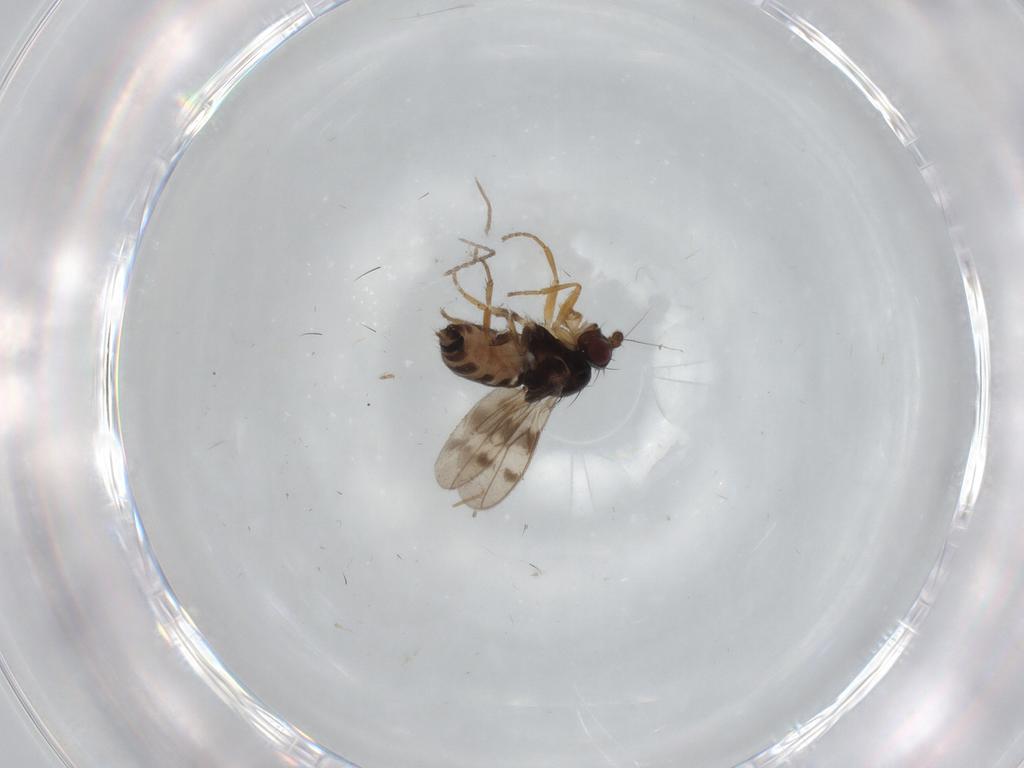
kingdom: Animalia
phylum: Arthropoda
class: Insecta
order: Diptera
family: Sphaeroceridae
